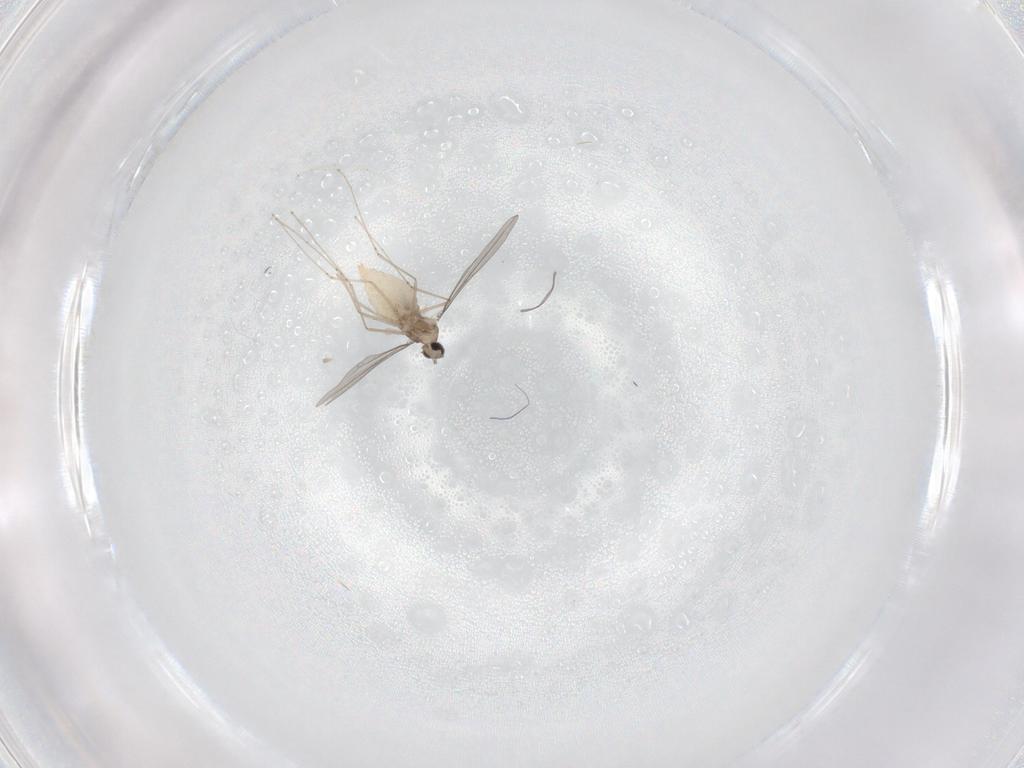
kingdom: Animalia
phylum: Arthropoda
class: Insecta
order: Diptera
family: Cecidomyiidae
